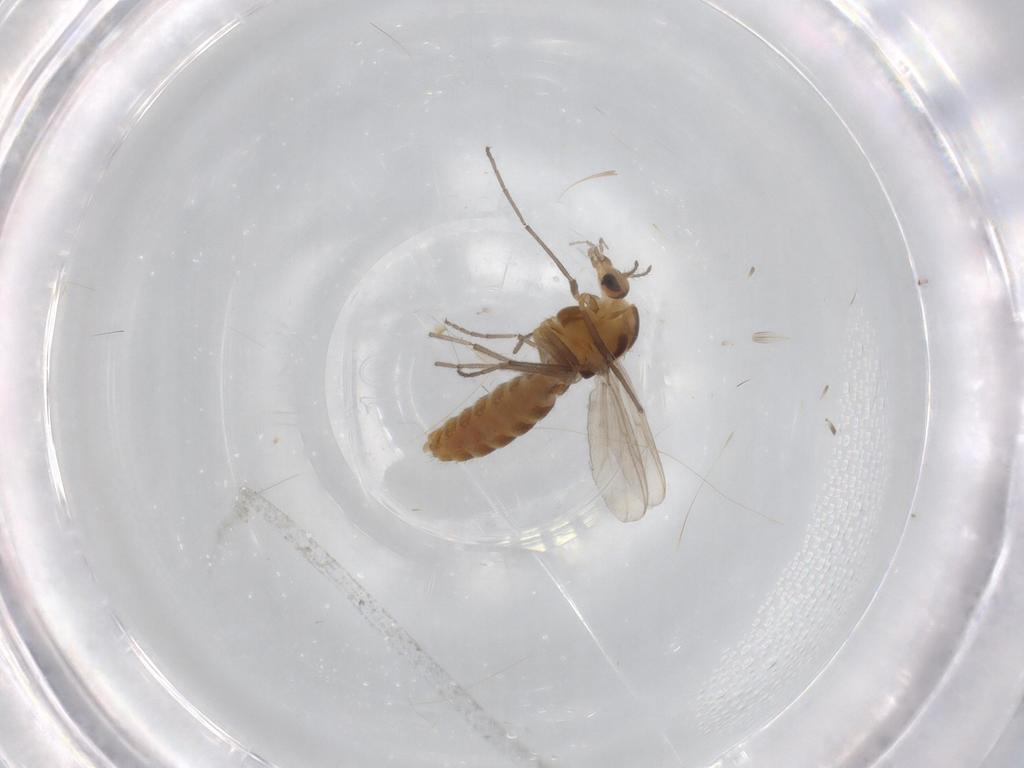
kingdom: Animalia
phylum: Arthropoda
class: Insecta
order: Diptera
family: Chironomidae
